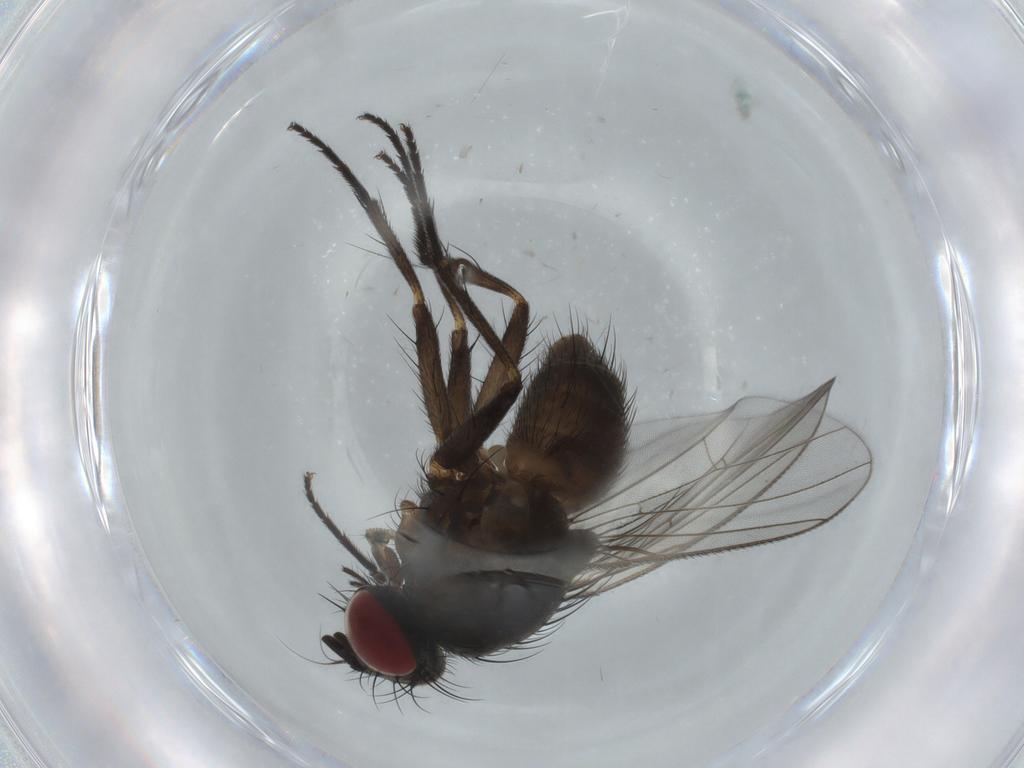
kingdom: Animalia
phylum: Arthropoda
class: Insecta
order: Diptera
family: Muscidae
